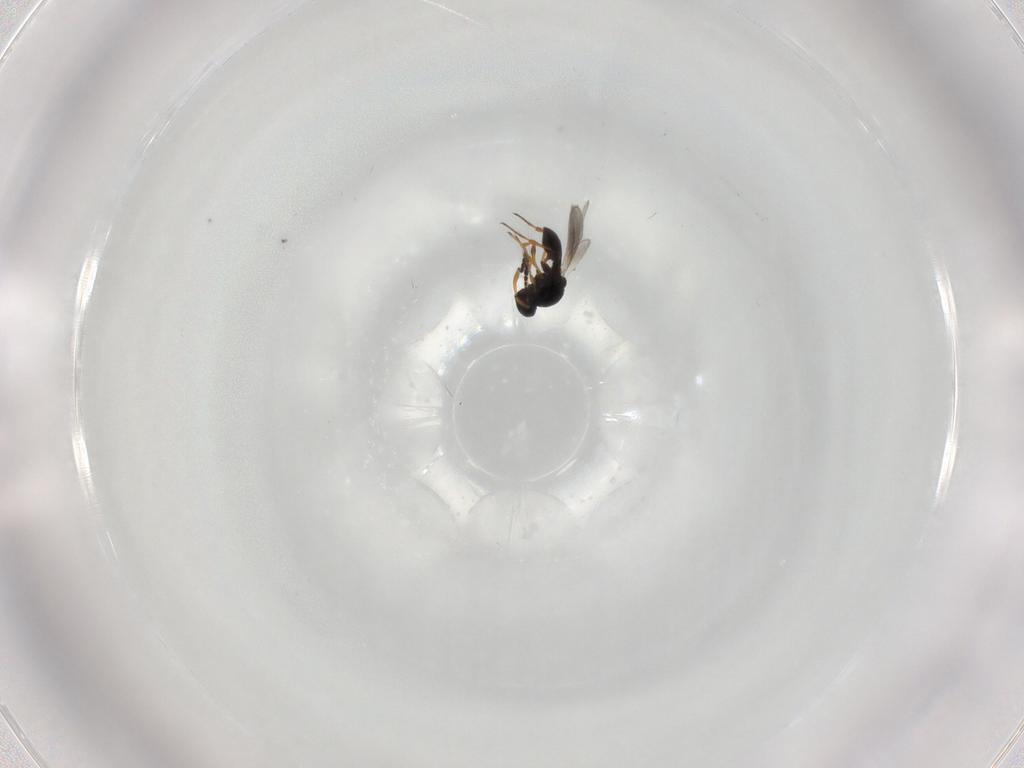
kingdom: Animalia
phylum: Arthropoda
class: Insecta
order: Hymenoptera
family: Platygastridae
